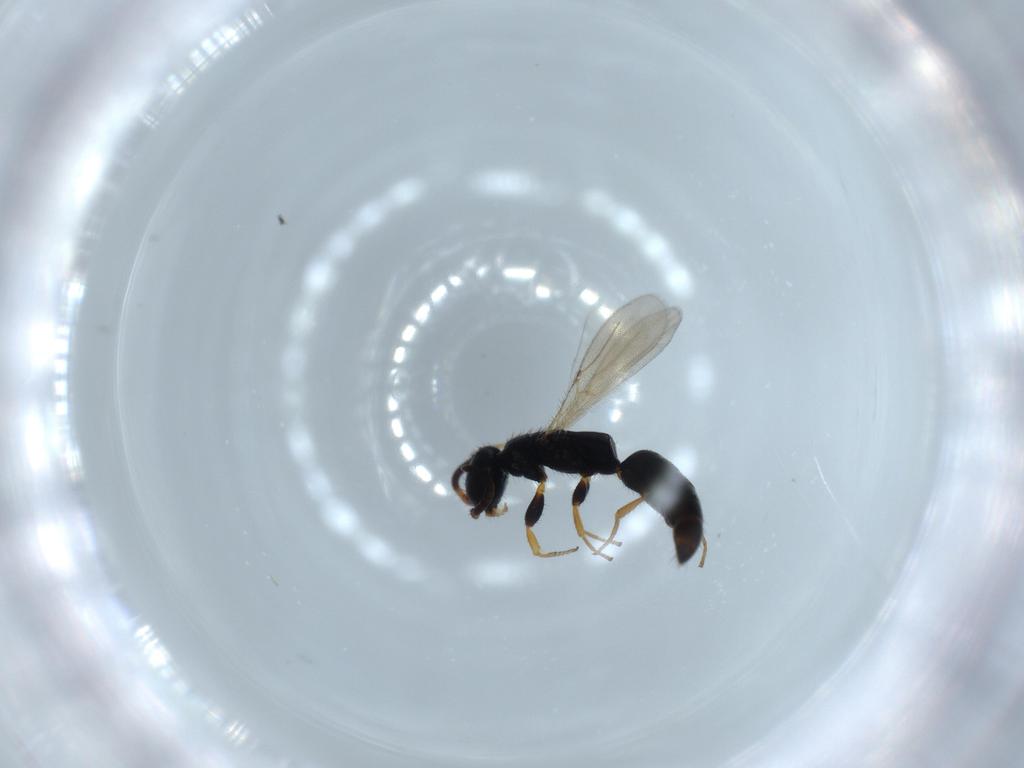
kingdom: Animalia
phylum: Arthropoda
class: Insecta
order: Hymenoptera
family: Bethylidae
